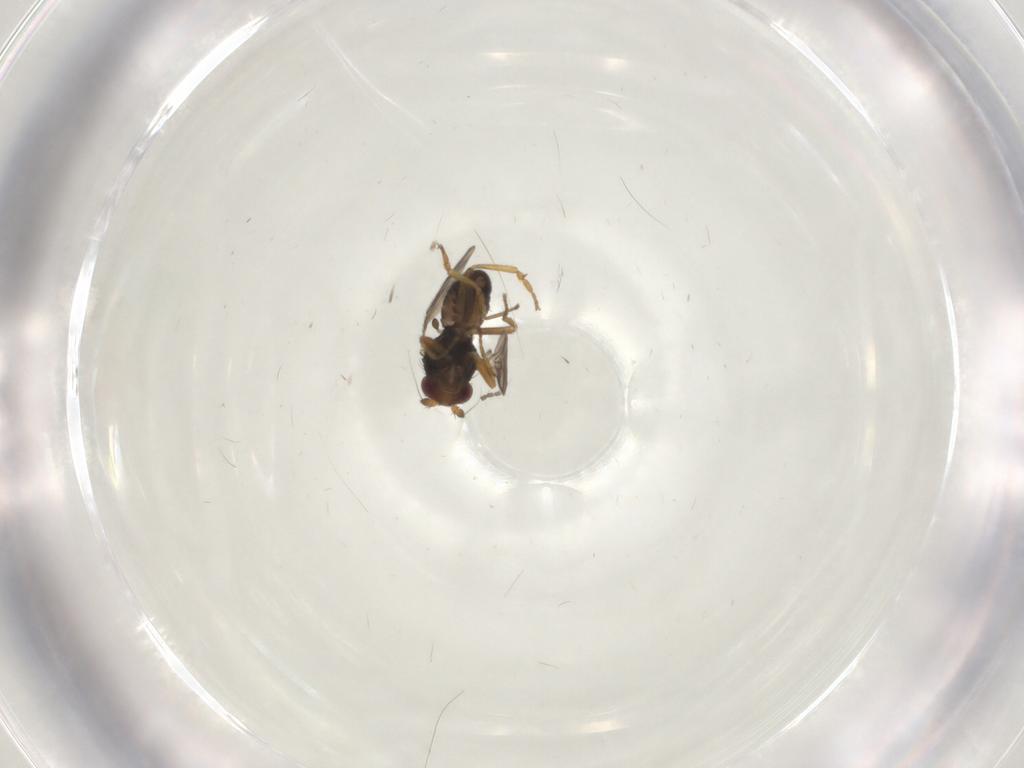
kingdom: Animalia
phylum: Arthropoda
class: Insecta
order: Diptera
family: Sphaeroceridae
